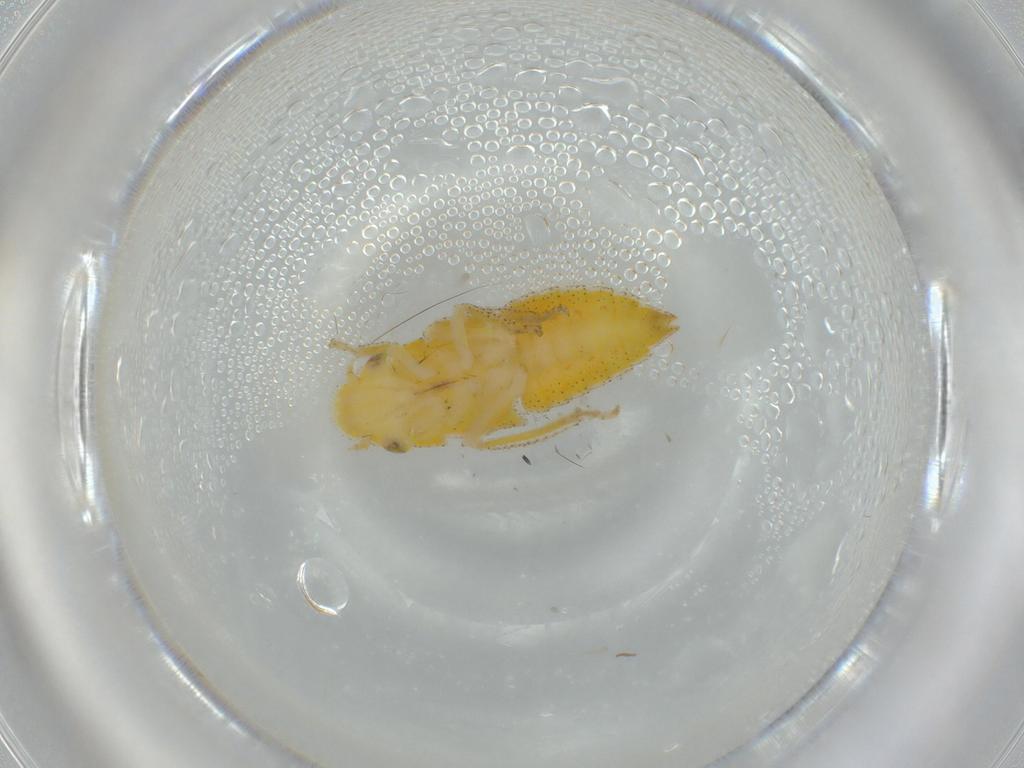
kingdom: Animalia
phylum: Arthropoda
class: Insecta
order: Hemiptera
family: Cicadellidae
